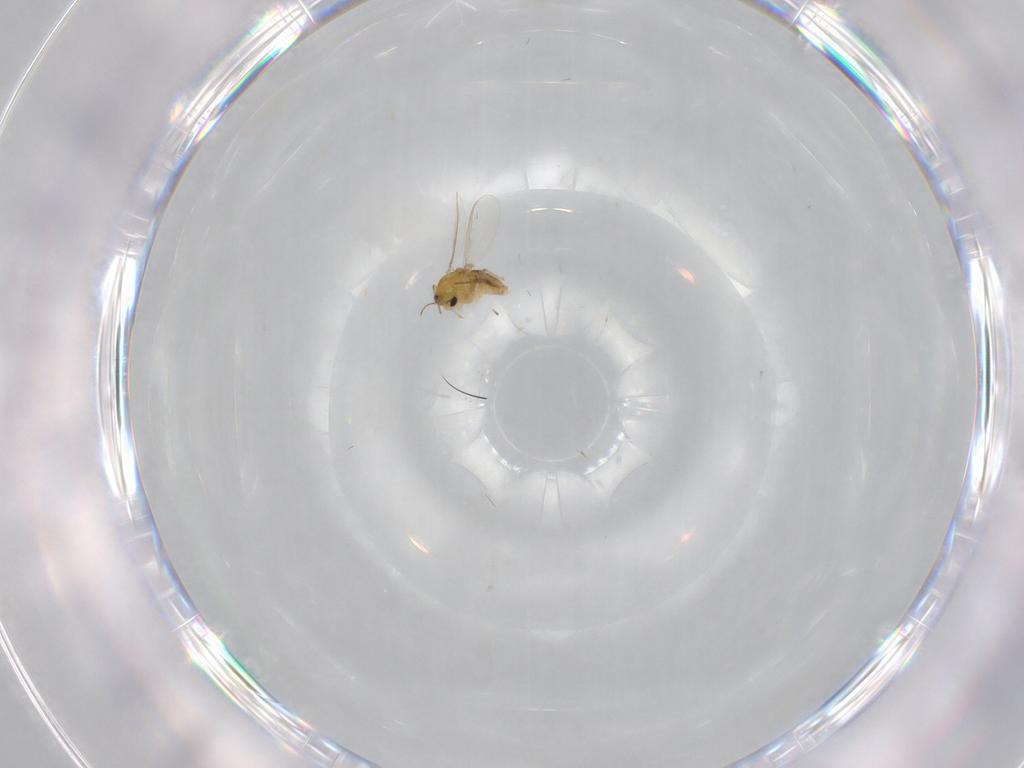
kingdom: Animalia
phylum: Arthropoda
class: Insecta
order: Diptera
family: Chironomidae
